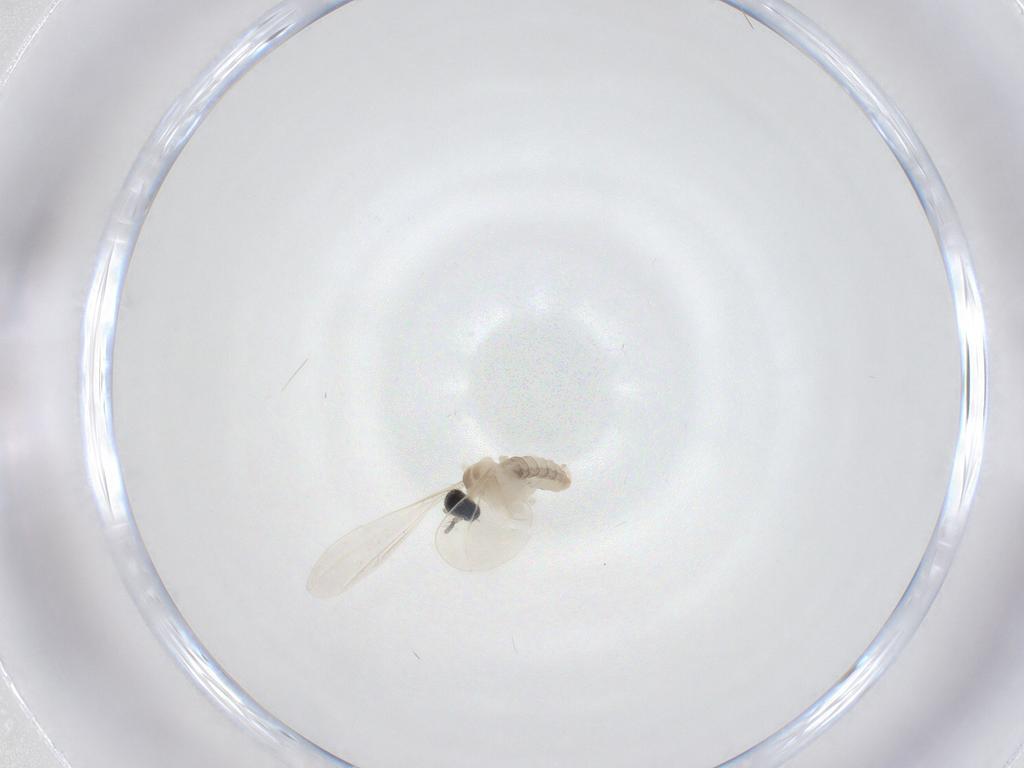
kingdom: Animalia
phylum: Arthropoda
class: Insecta
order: Diptera
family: Cecidomyiidae
